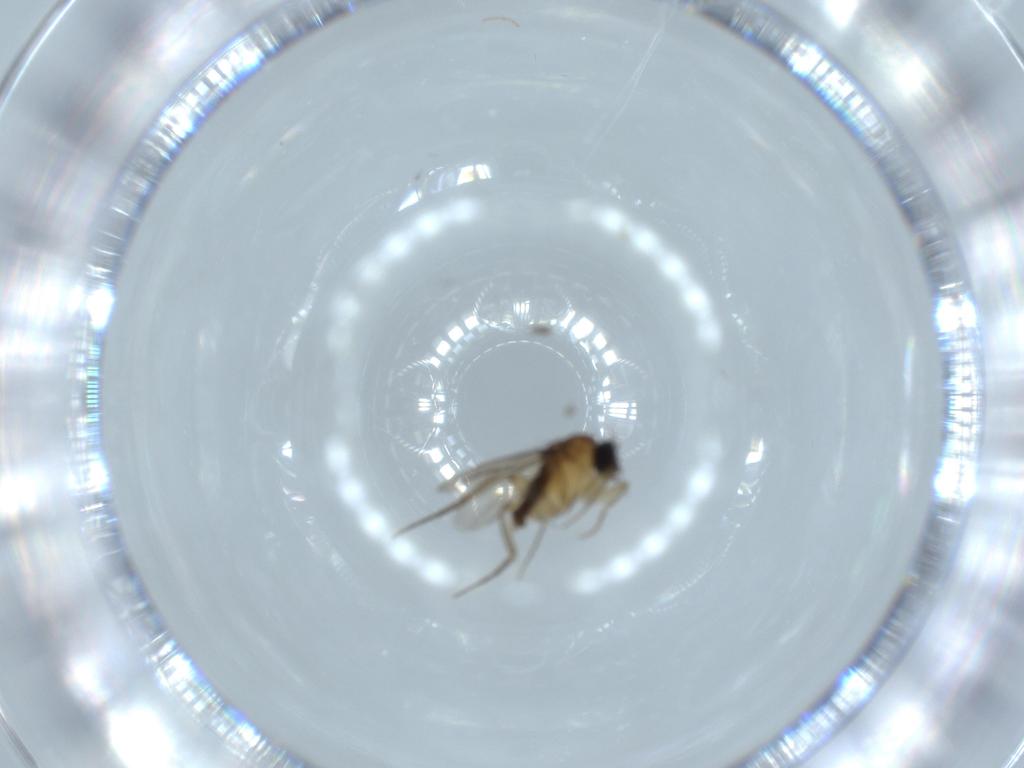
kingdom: Animalia
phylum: Arthropoda
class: Insecta
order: Diptera
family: Phoridae
